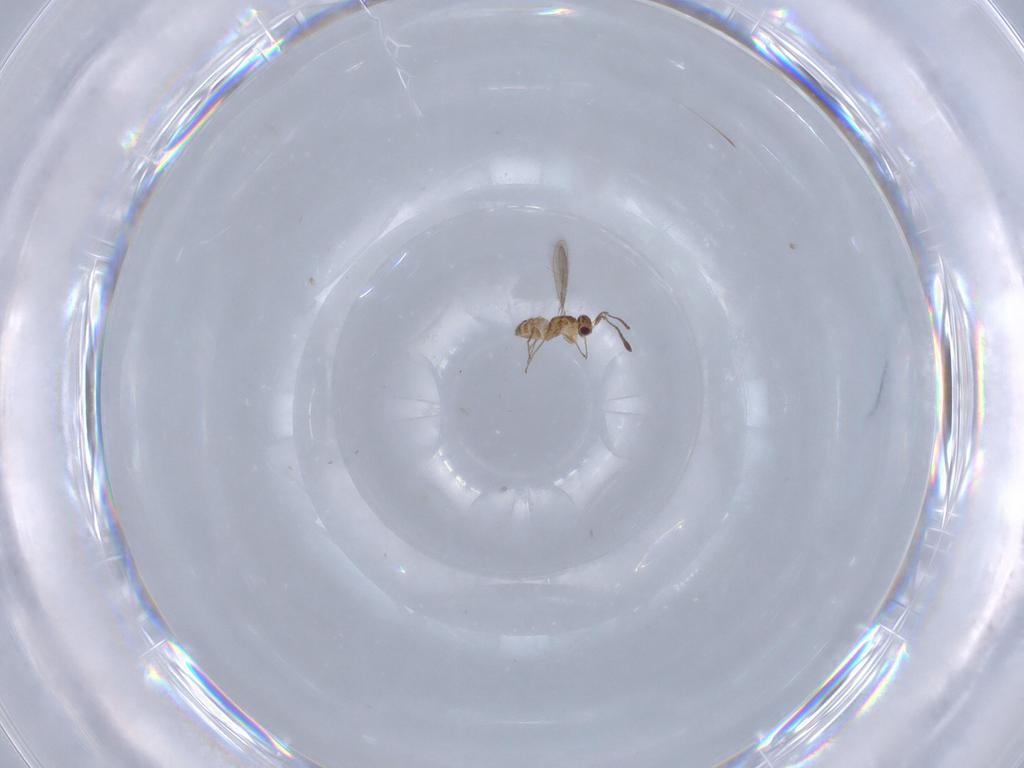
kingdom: Animalia
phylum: Arthropoda
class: Insecta
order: Hymenoptera
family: Mymaridae
